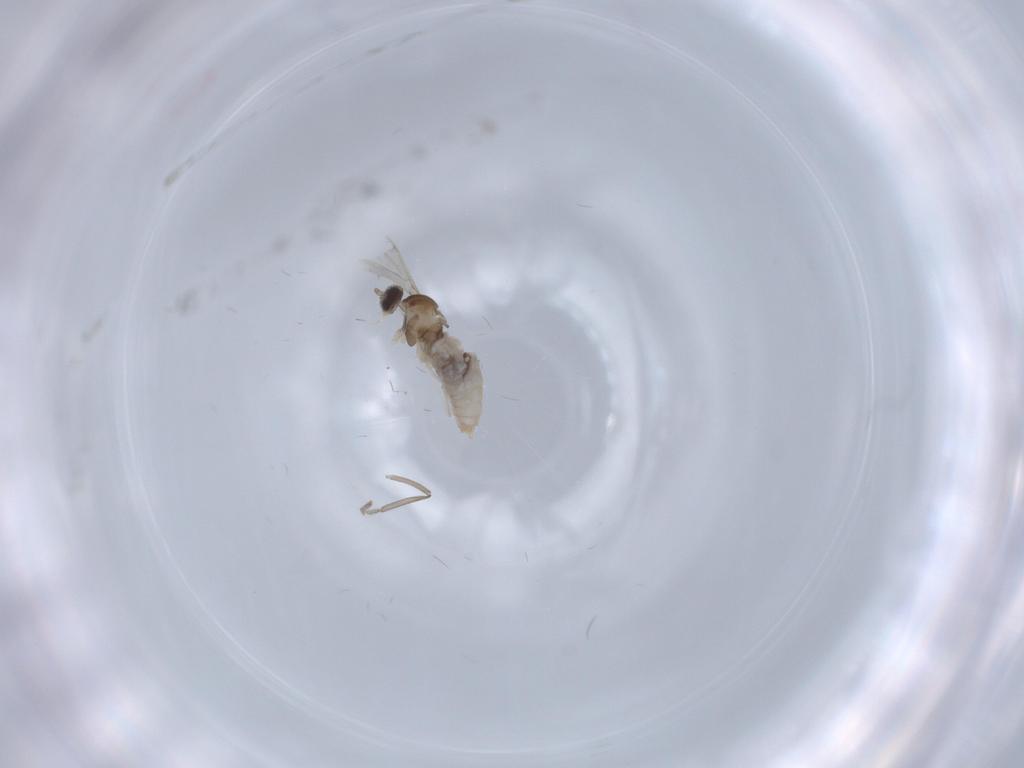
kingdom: Animalia
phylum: Arthropoda
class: Insecta
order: Diptera
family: Cecidomyiidae
